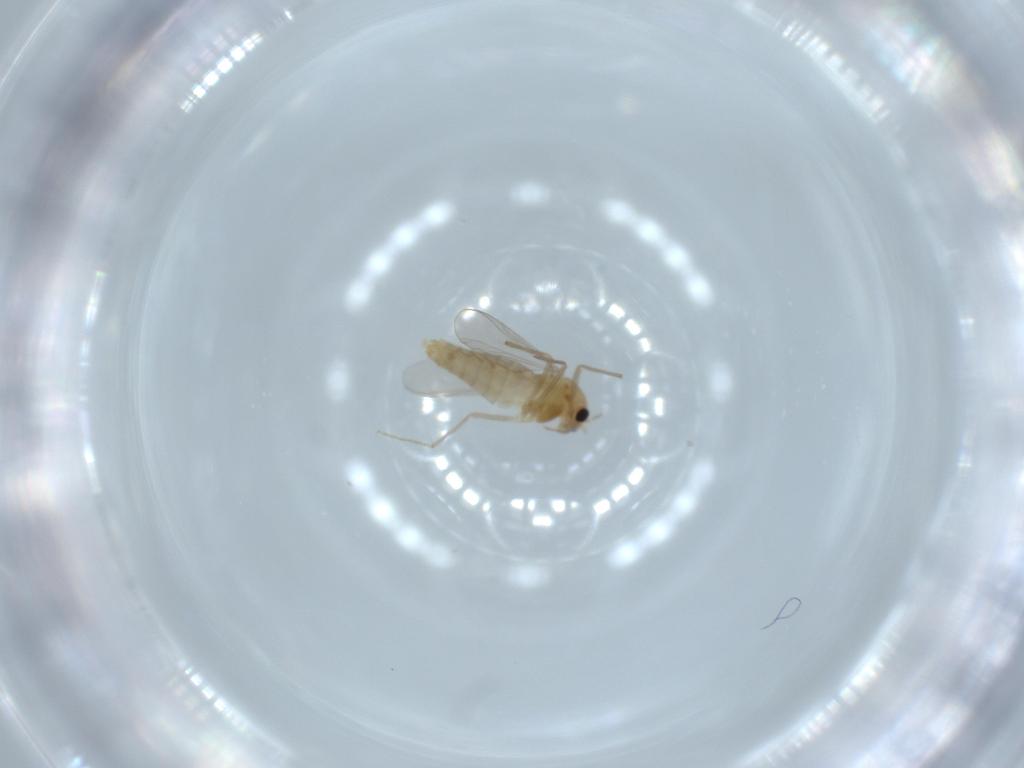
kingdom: Animalia
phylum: Arthropoda
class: Insecta
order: Diptera
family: Chironomidae
